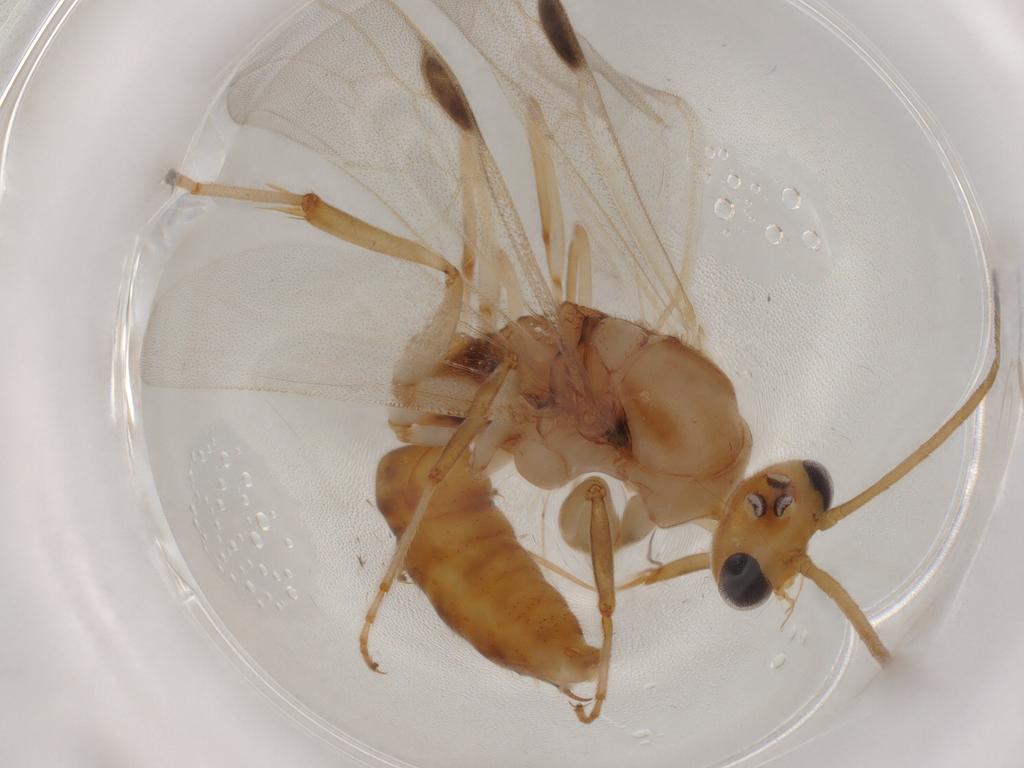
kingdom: Animalia
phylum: Arthropoda
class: Insecta
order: Hymenoptera
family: Formicidae
